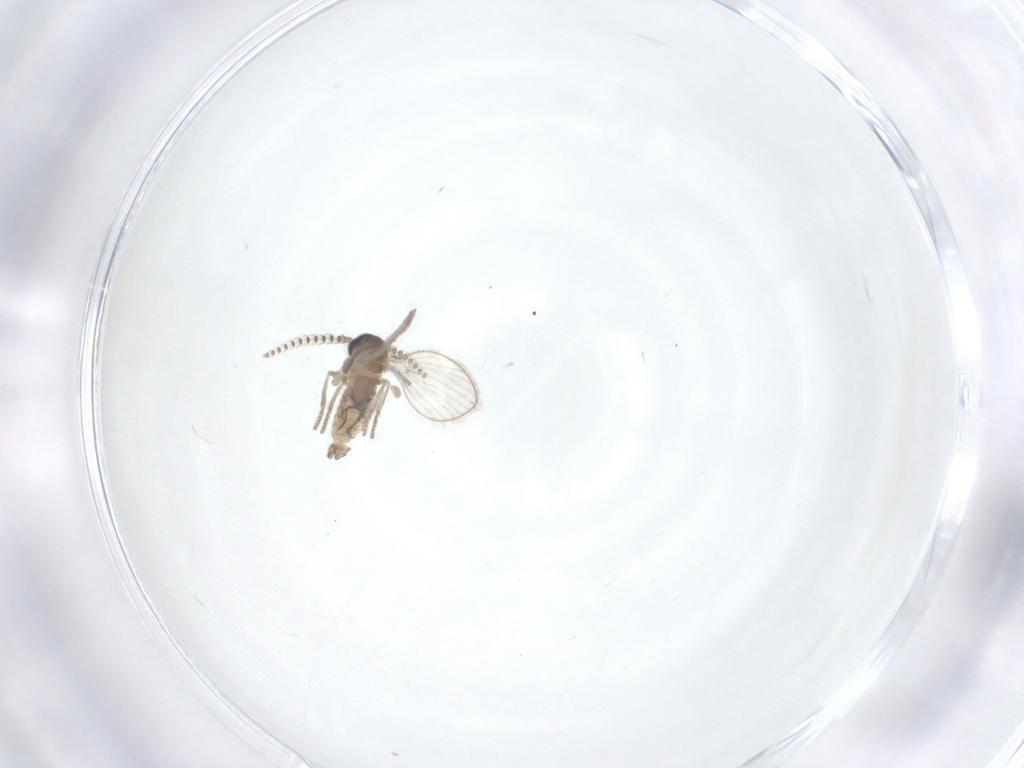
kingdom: Animalia
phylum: Arthropoda
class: Insecta
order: Diptera
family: Psychodidae
